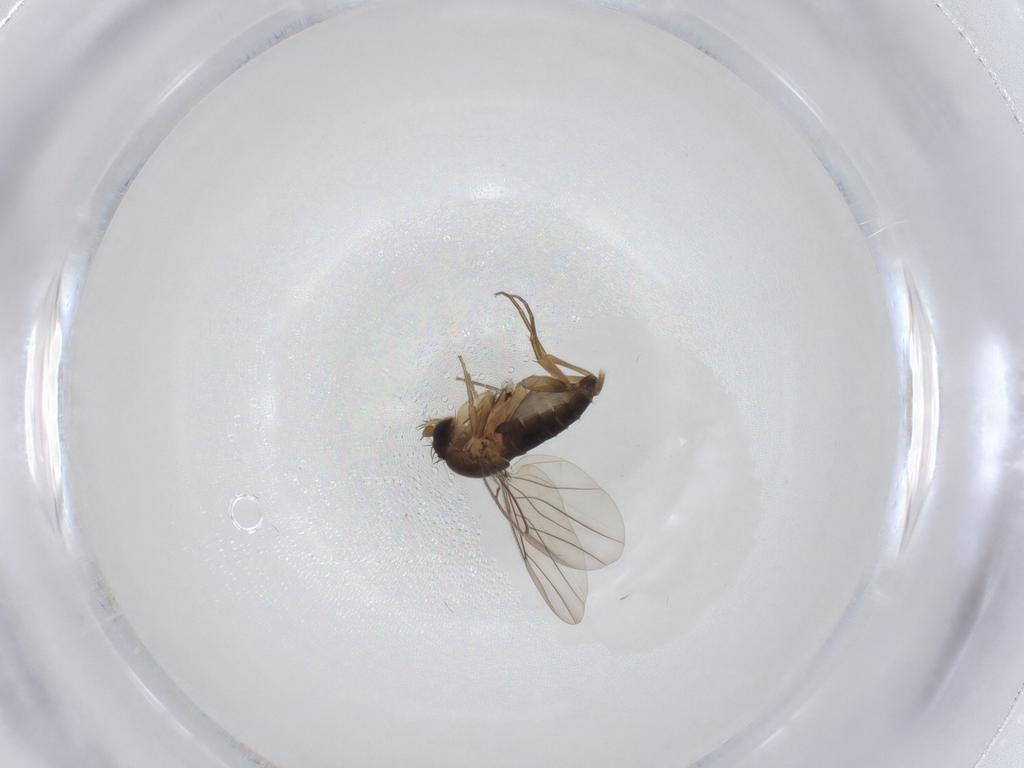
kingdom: Animalia
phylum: Arthropoda
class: Insecta
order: Diptera
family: Phoridae
